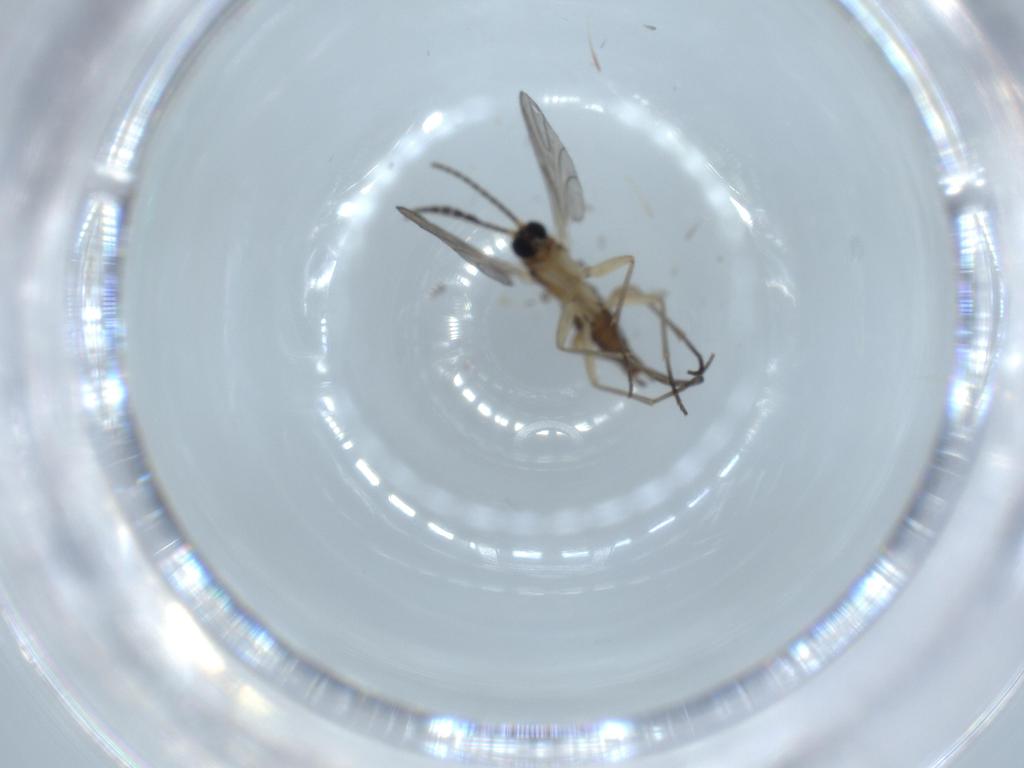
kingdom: Animalia
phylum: Arthropoda
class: Insecta
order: Diptera
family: Sciaridae
